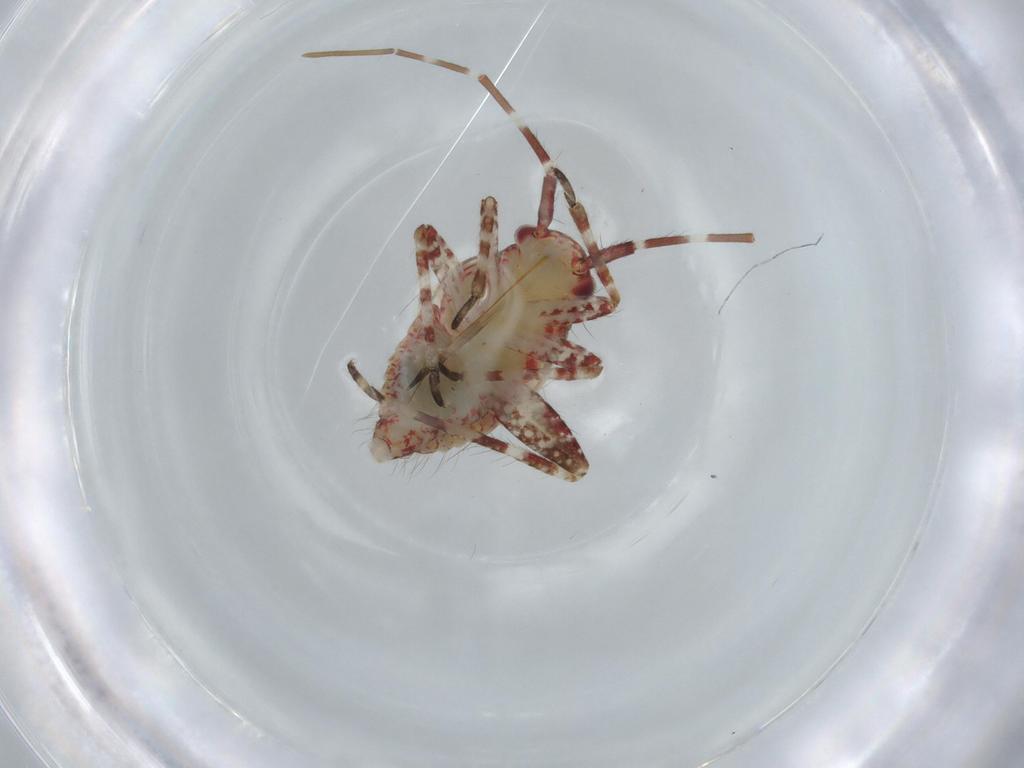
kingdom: Animalia
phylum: Arthropoda
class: Insecta
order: Hemiptera
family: Miridae
